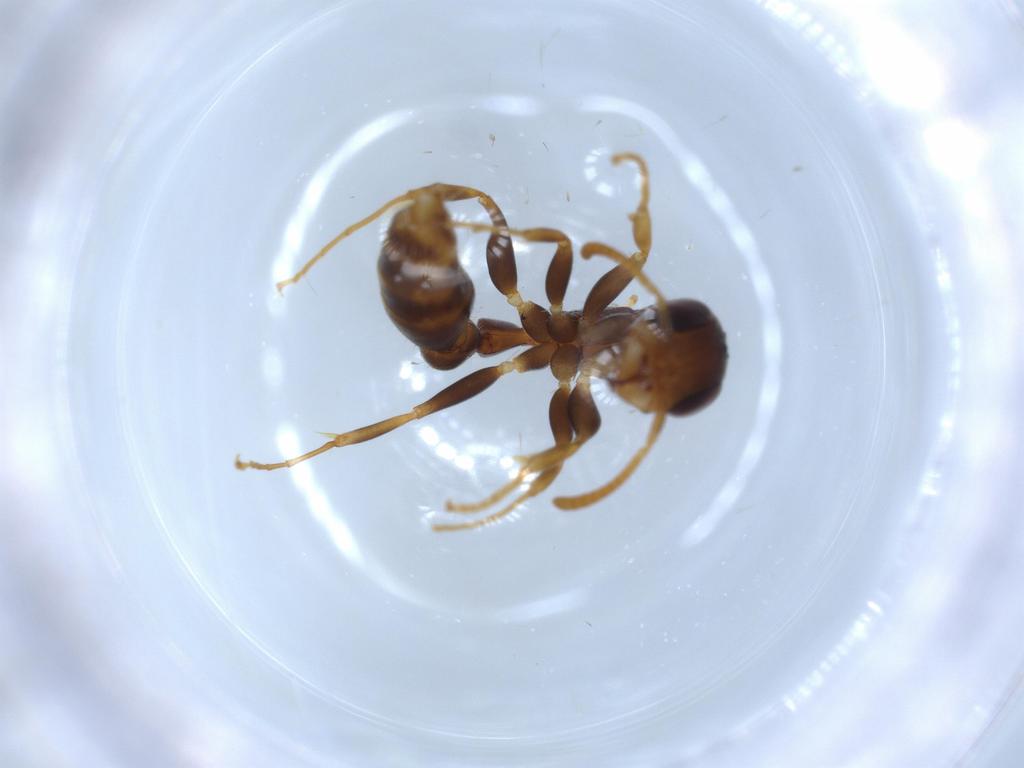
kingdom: Animalia
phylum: Arthropoda
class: Insecta
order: Hymenoptera
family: Formicidae
